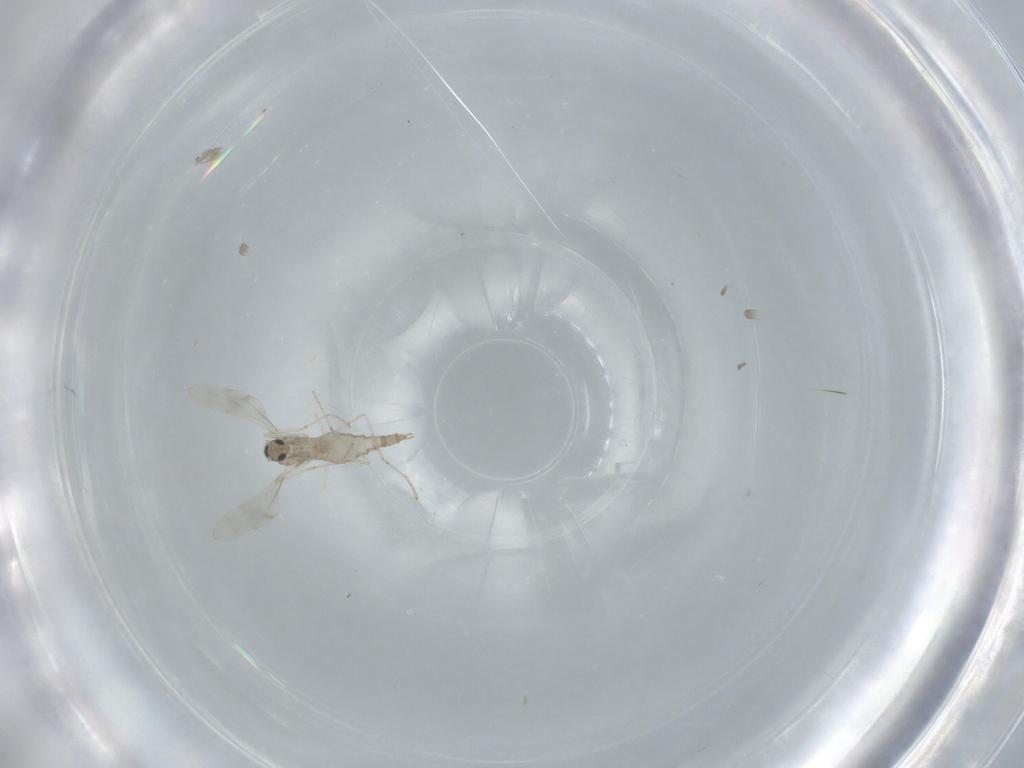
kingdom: Animalia
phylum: Arthropoda
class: Insecta
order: Diptera
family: Cecidomyiidae
